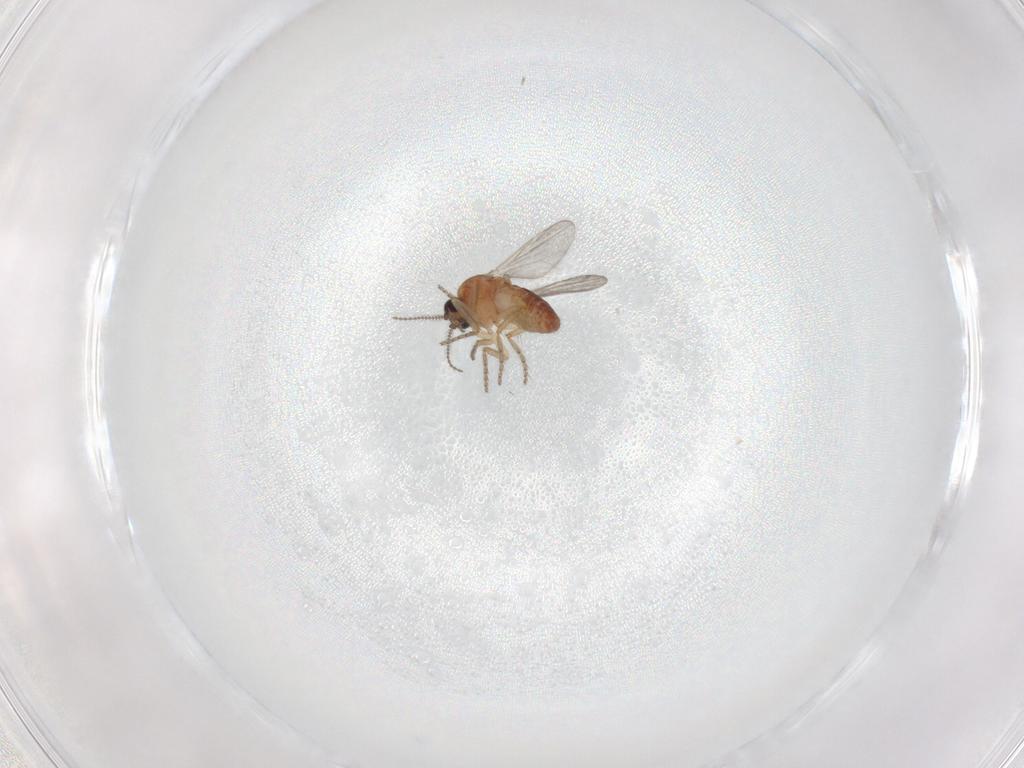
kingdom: Animalia
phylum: Arthropoda
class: Insecta
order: Diptera
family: Ceratopogonidae
